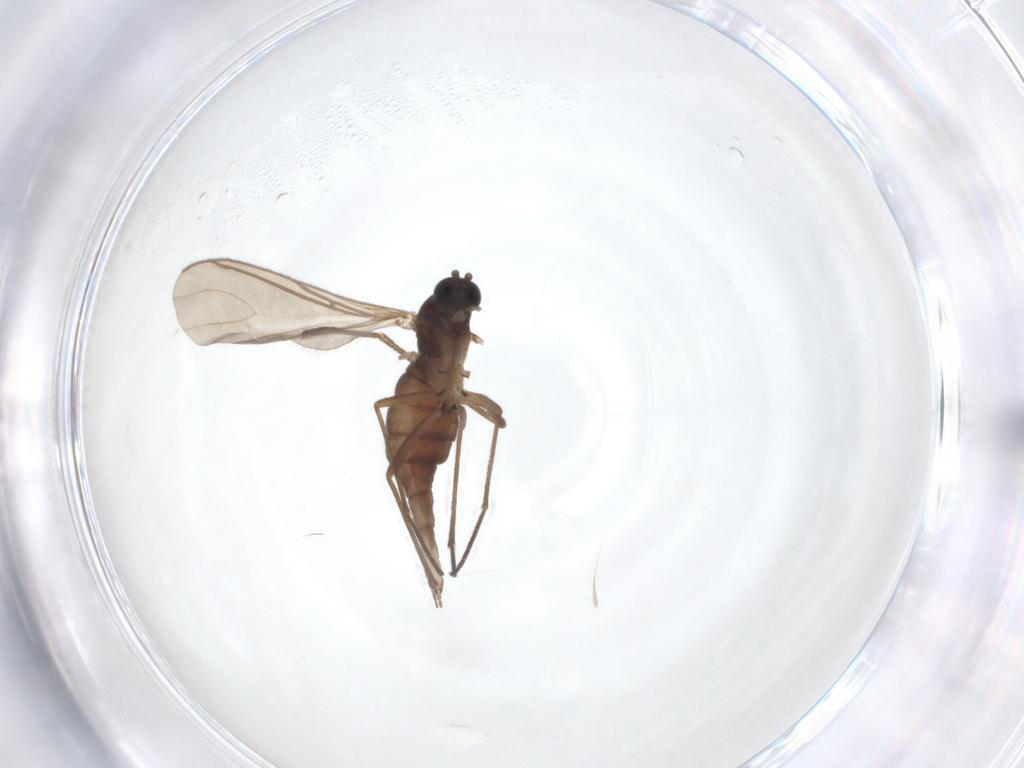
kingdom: Animalia
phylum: Arthropoda
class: Insecta
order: Diptera
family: Sciaridae
